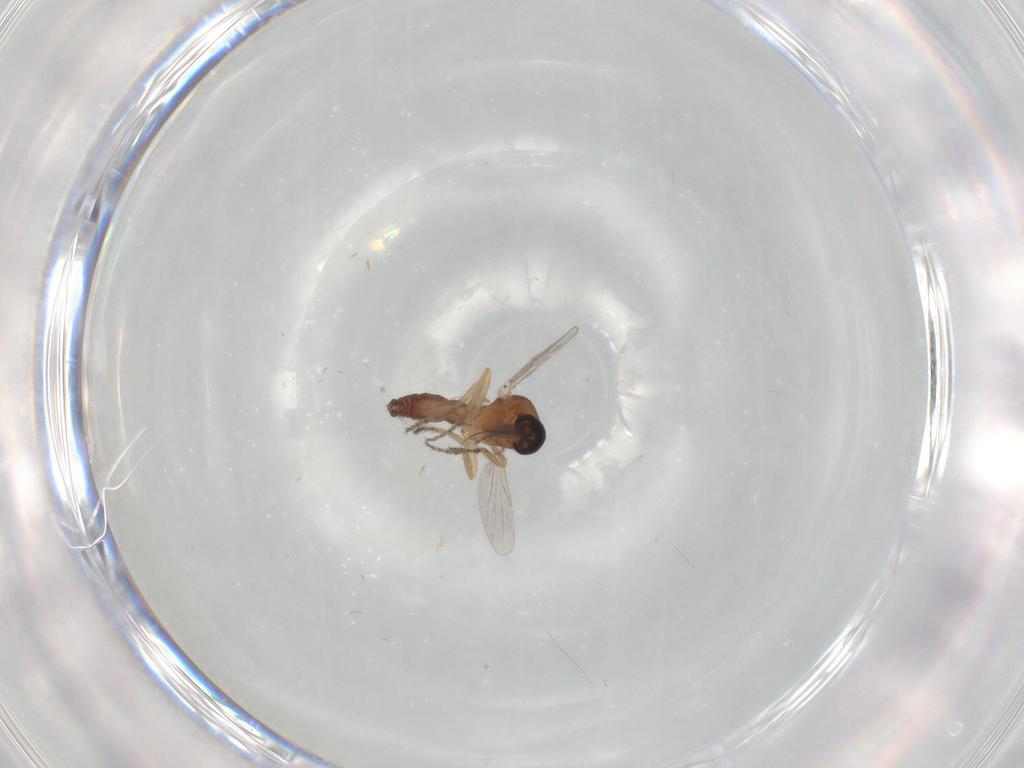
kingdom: Animalia
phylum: Arthropoda
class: Insecta
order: Diptera
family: Ceratopogonidae
